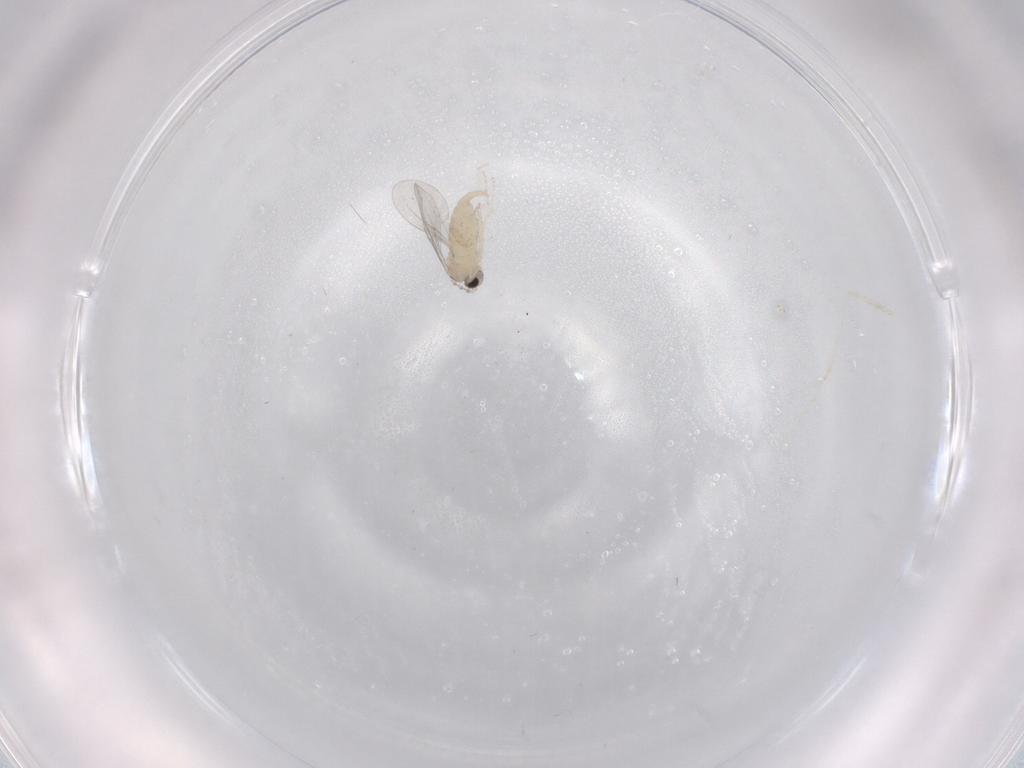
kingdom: Animalia
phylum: Arthropoda
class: Insecta
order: Diptera
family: Cecidomyiidae
